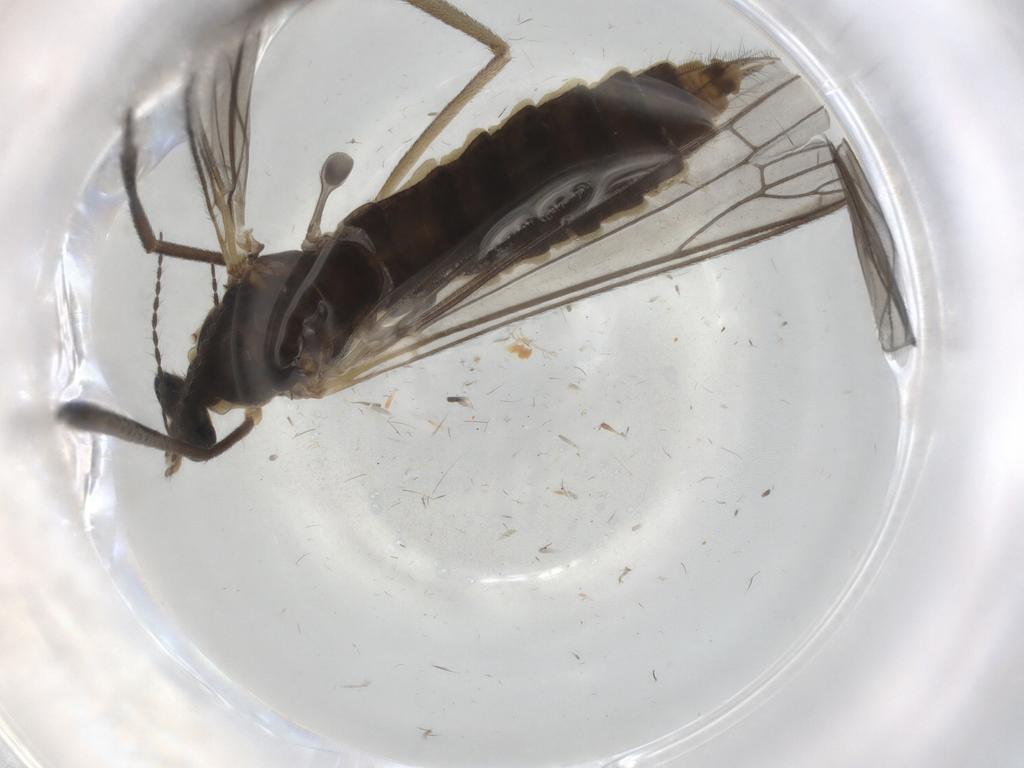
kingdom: Animalia
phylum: Arthropoda
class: Insecta
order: Diptera
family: Limoniidae
